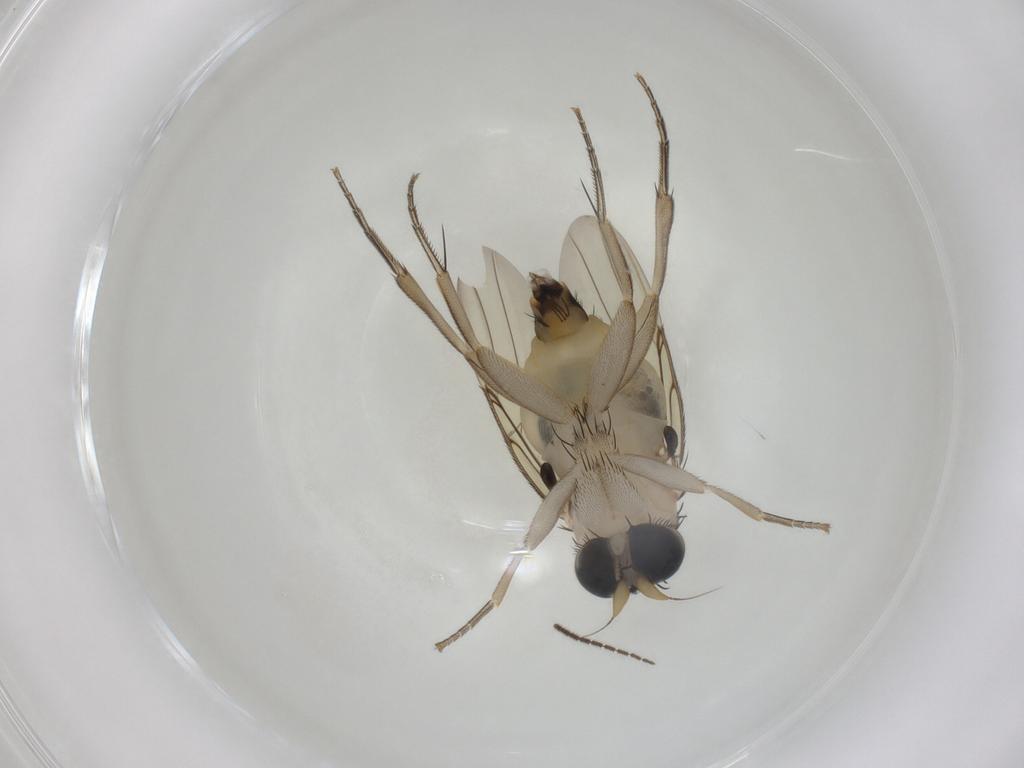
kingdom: Animalia
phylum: Arthropoda
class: Insecta
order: Diptera
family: Phoridae
